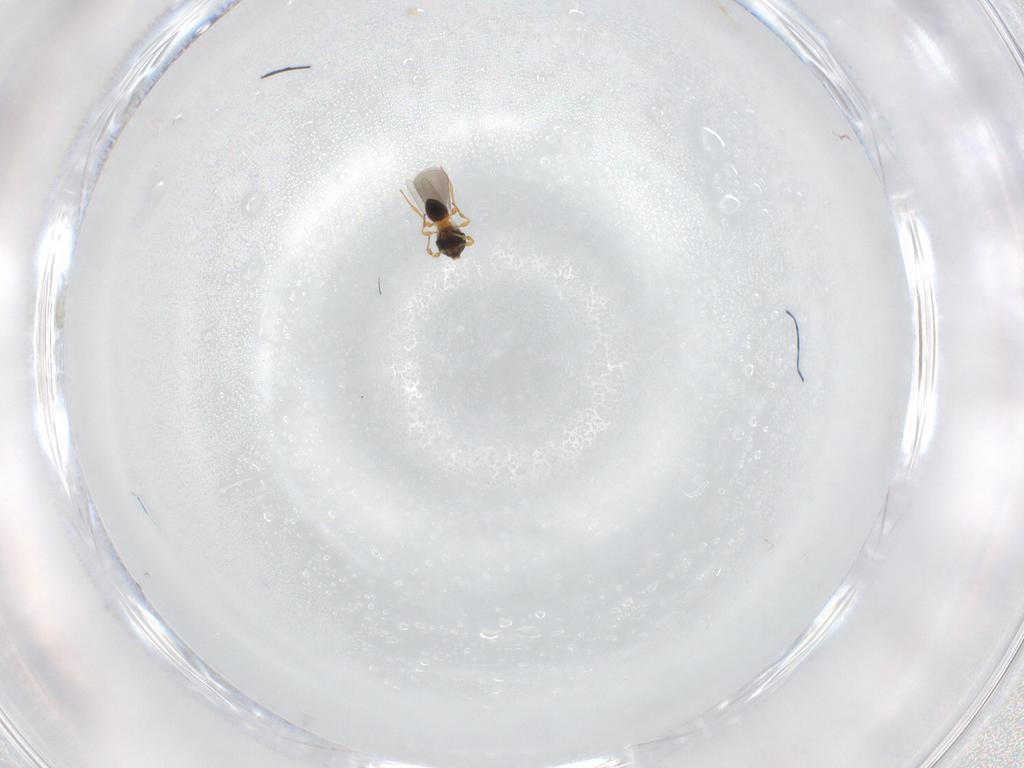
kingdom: Animalia
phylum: Arthropoda
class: Insecta
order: Hymenoptera
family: Platygastridae
